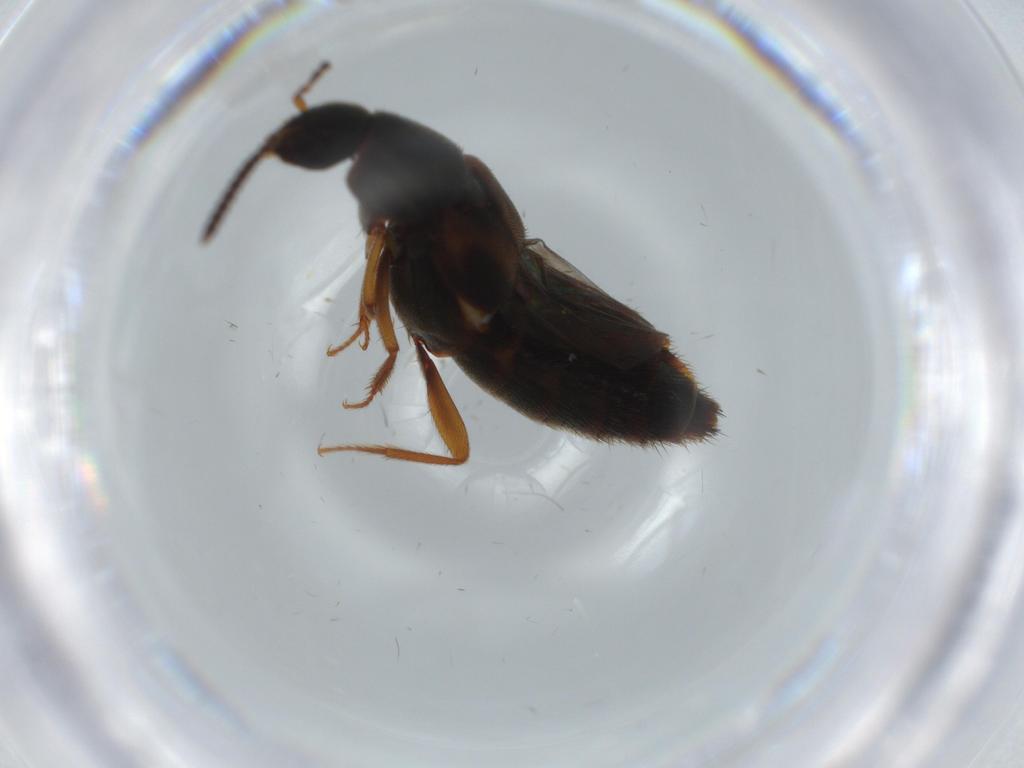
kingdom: Animalia
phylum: Arthropoda
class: Insecta
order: Coleoptera
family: Staphylinidae
